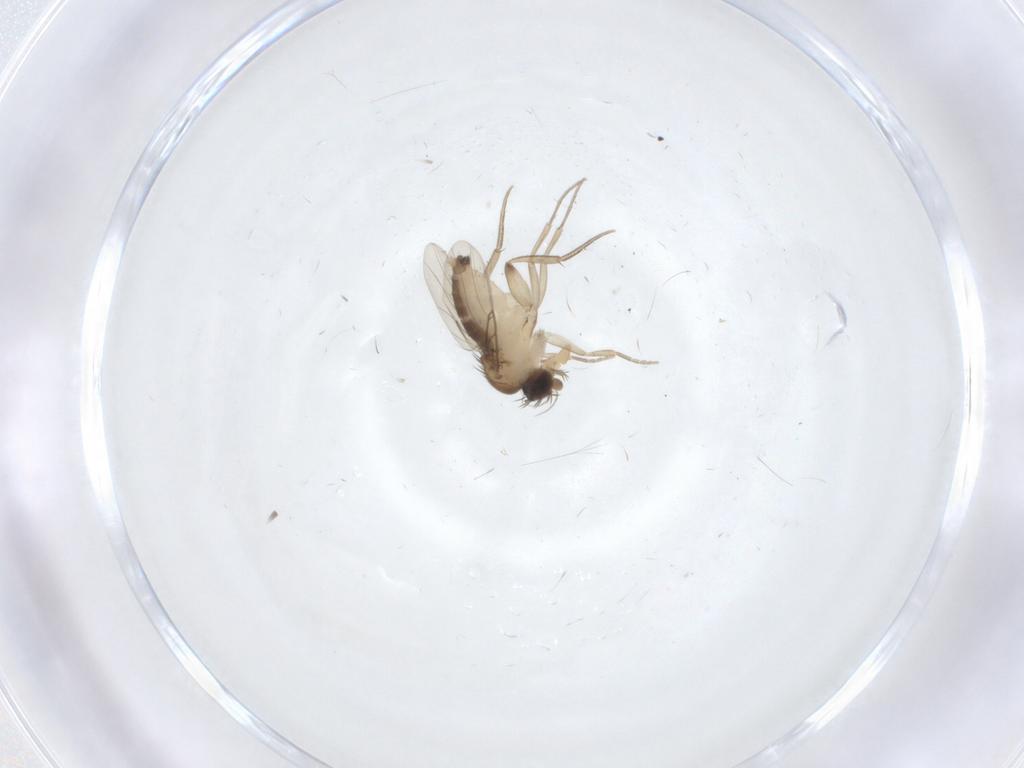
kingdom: Animalia
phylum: Arthropoda
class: Insecta
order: Diptera
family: Phoridae
